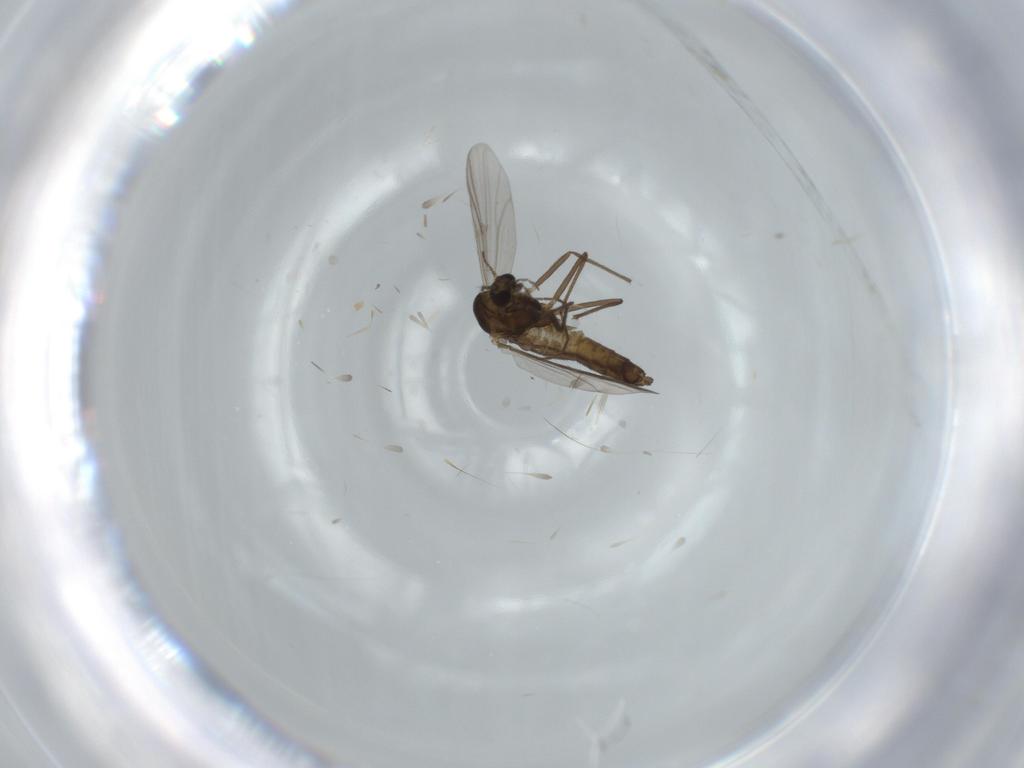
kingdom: Animalia
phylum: Arthropoda
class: Insecta
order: Diptera
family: Chironomidae
